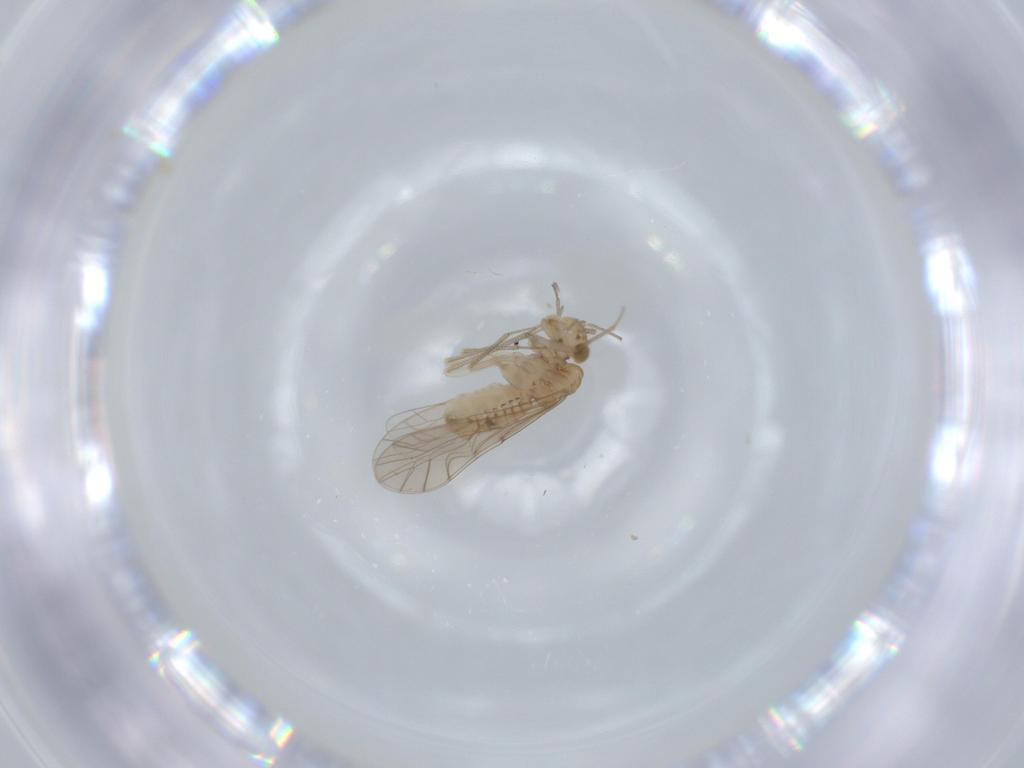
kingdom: Animalia
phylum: Arthropoda
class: Insecta
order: Psocodea
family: Lachesillidae
